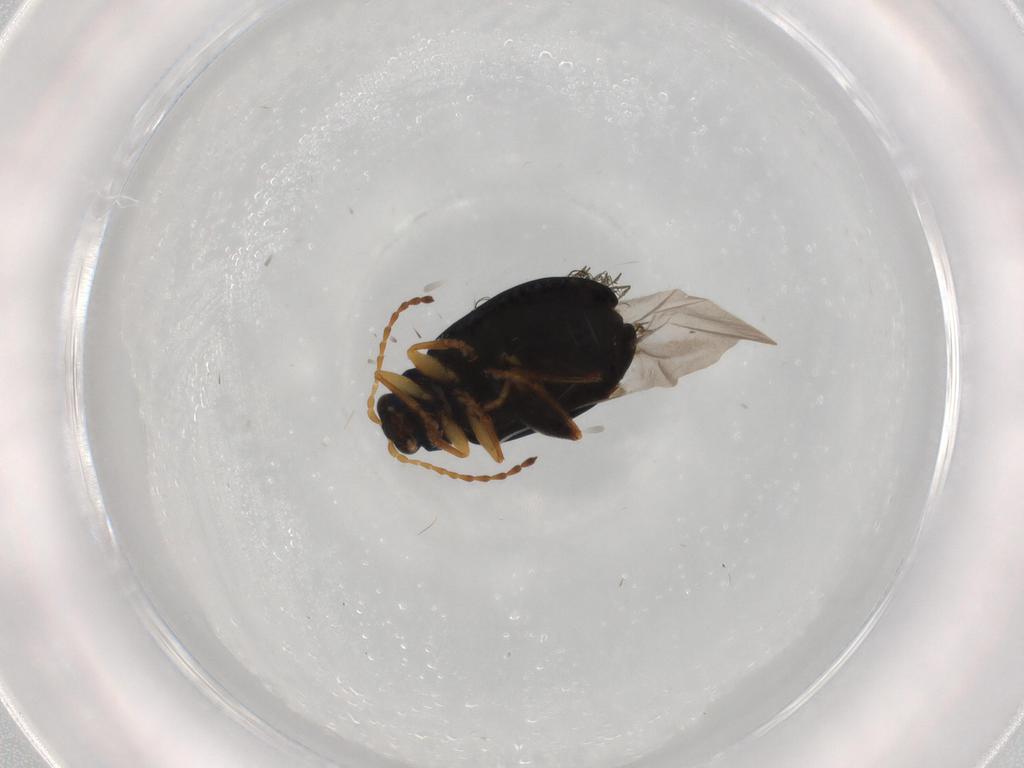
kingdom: Animalia
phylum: Arthropoda
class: Insecta
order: Coleoptera
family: Chrysomelidae
